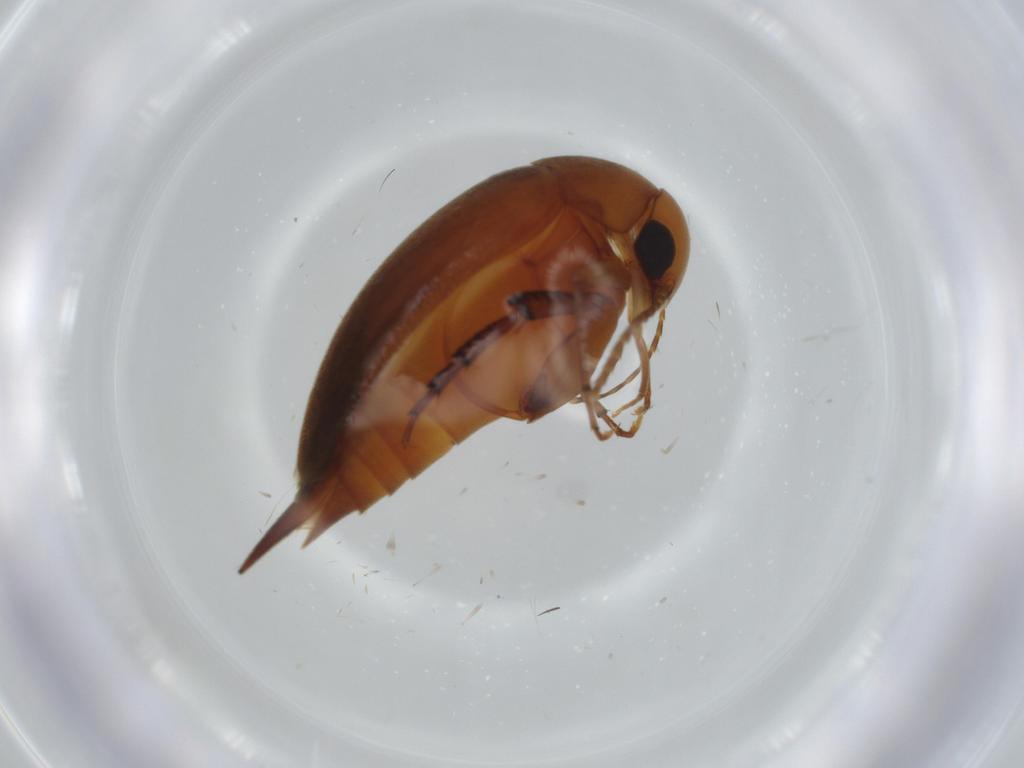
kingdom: Animalia
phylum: Arthropoda
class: Insecta
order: Coleoptera
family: Mordellidae
